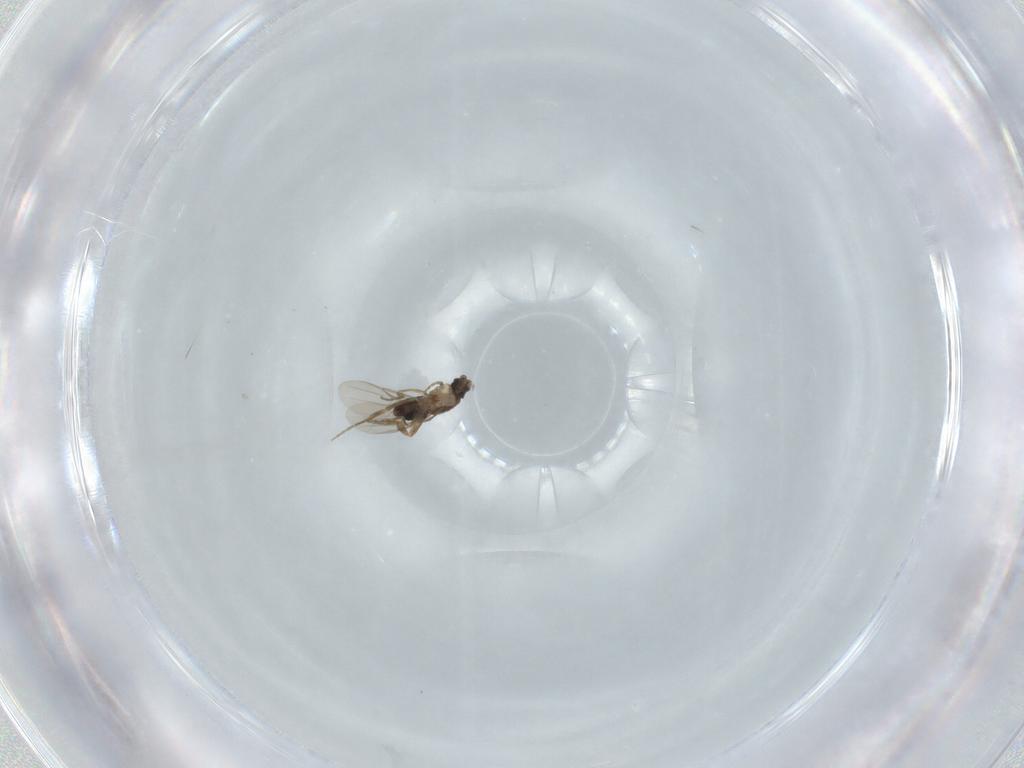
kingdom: Animalia
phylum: Arthropoda
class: Insecta
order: Diptera
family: Phoridae
